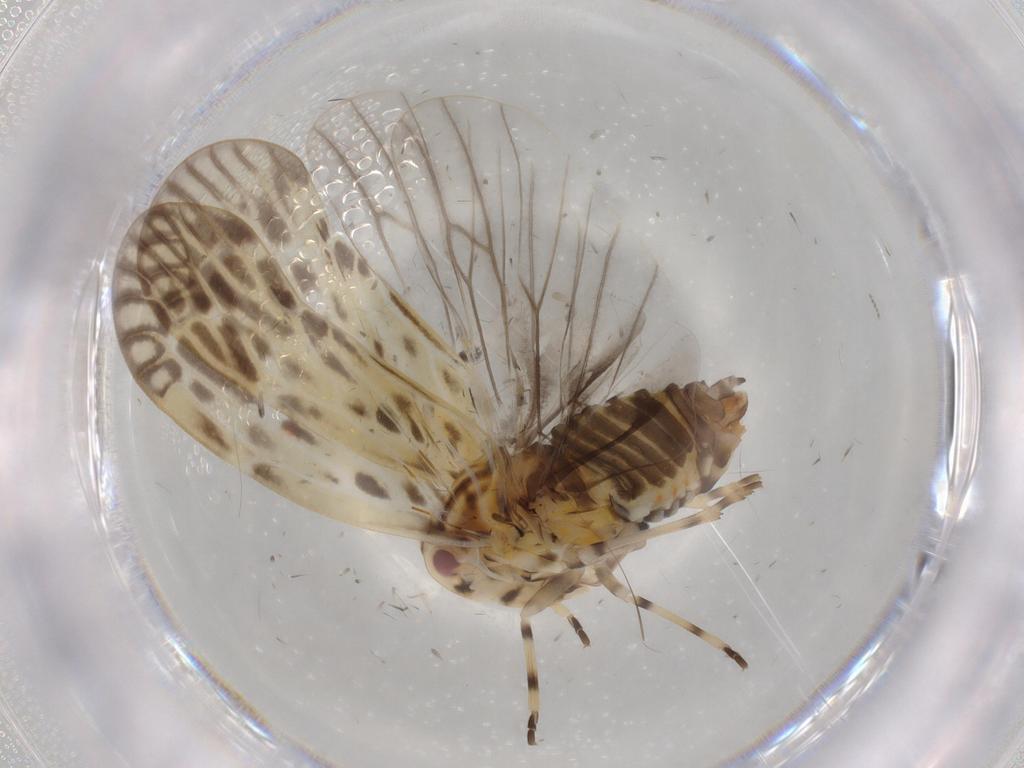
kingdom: Animalia
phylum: Arthropoda
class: Insecta
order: Hemiptera
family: Derbidae
